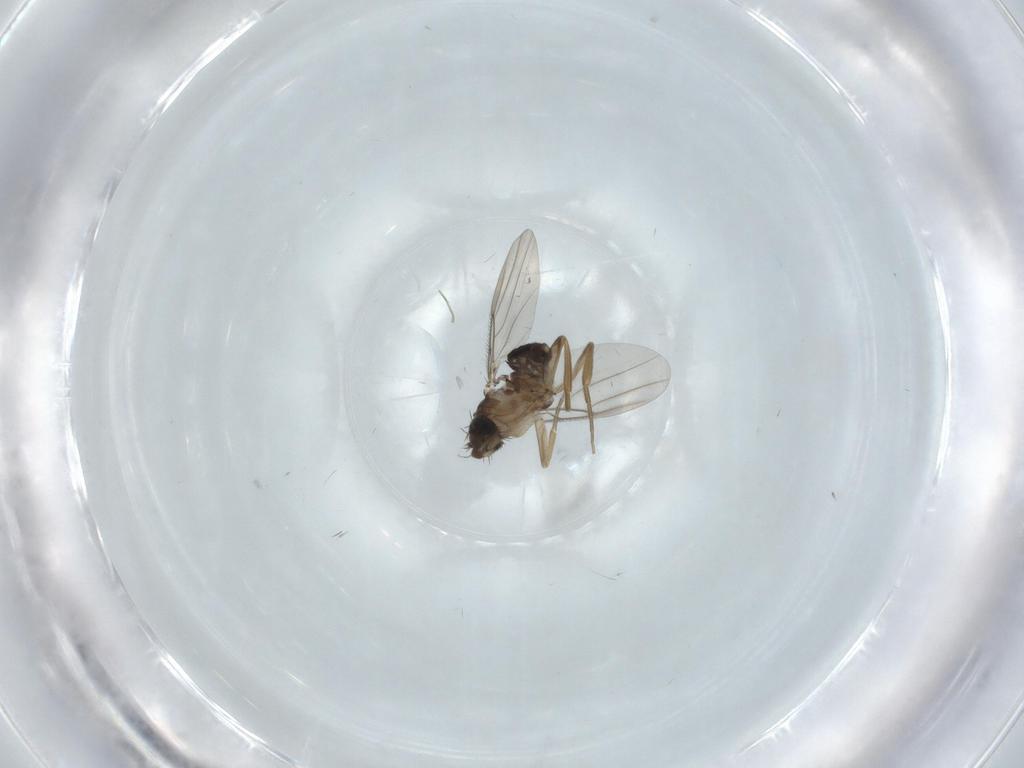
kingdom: Animalia
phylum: Arthropoda
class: Insecta
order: Diptera
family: Phoridae
